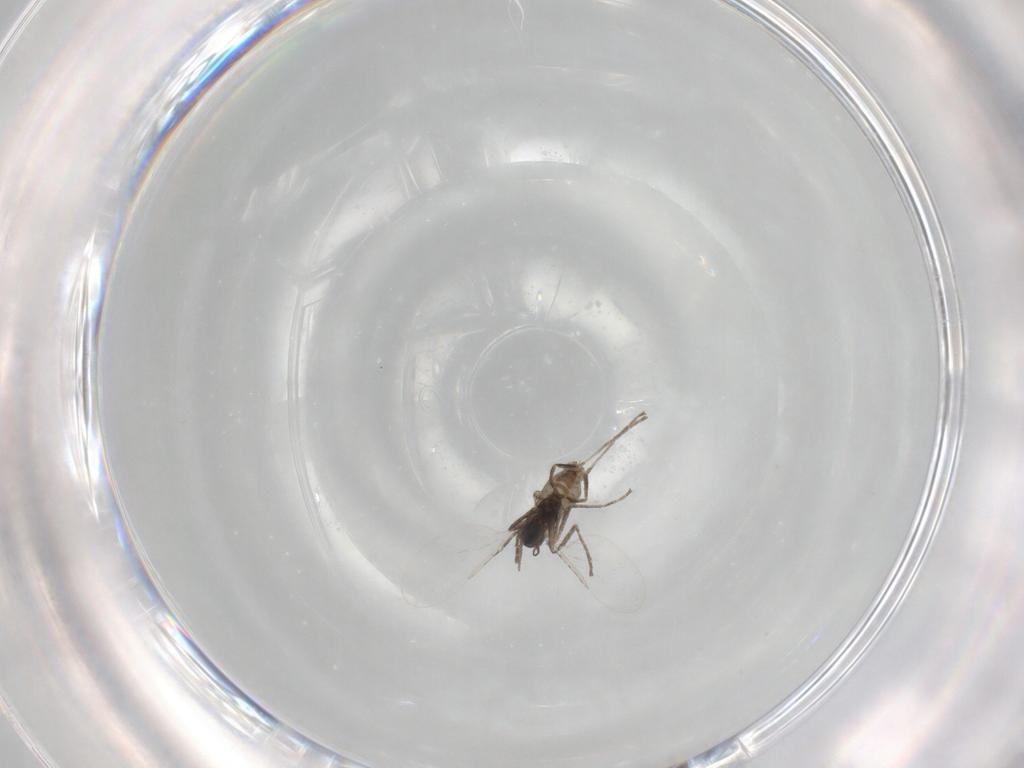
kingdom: Animalia
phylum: Arthropoda
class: Insecta
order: Diptera
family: Cecidomyiidae
